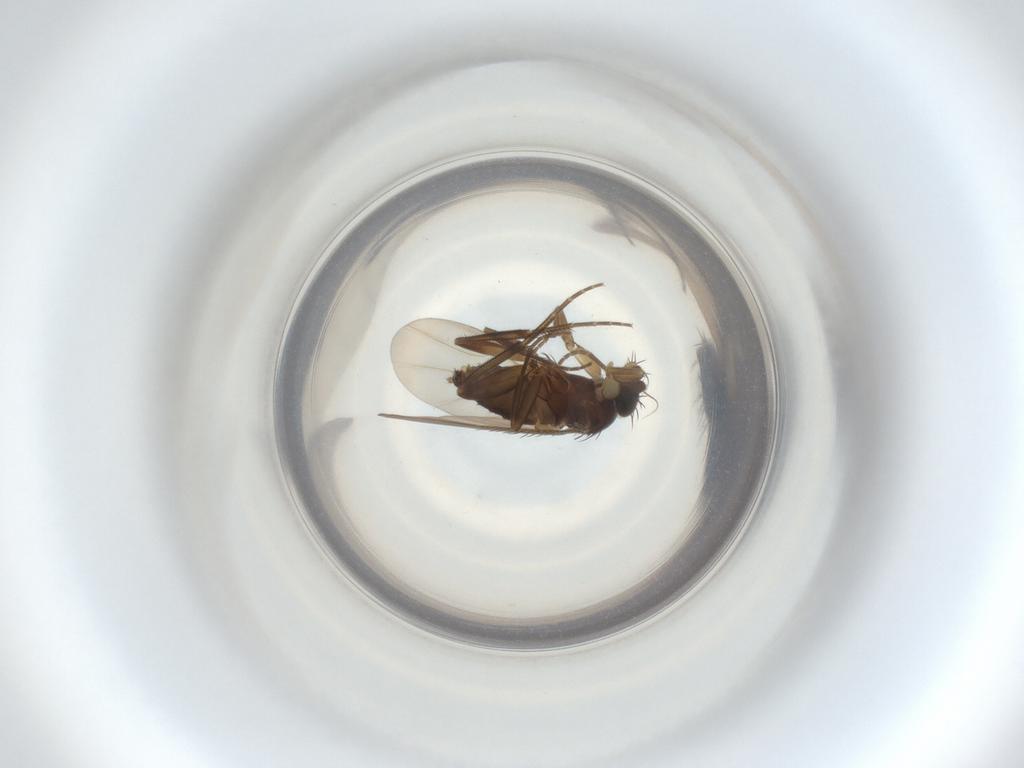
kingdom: Animalia
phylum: Arthropoda
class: Insecta
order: Diptera
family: Phoridae
